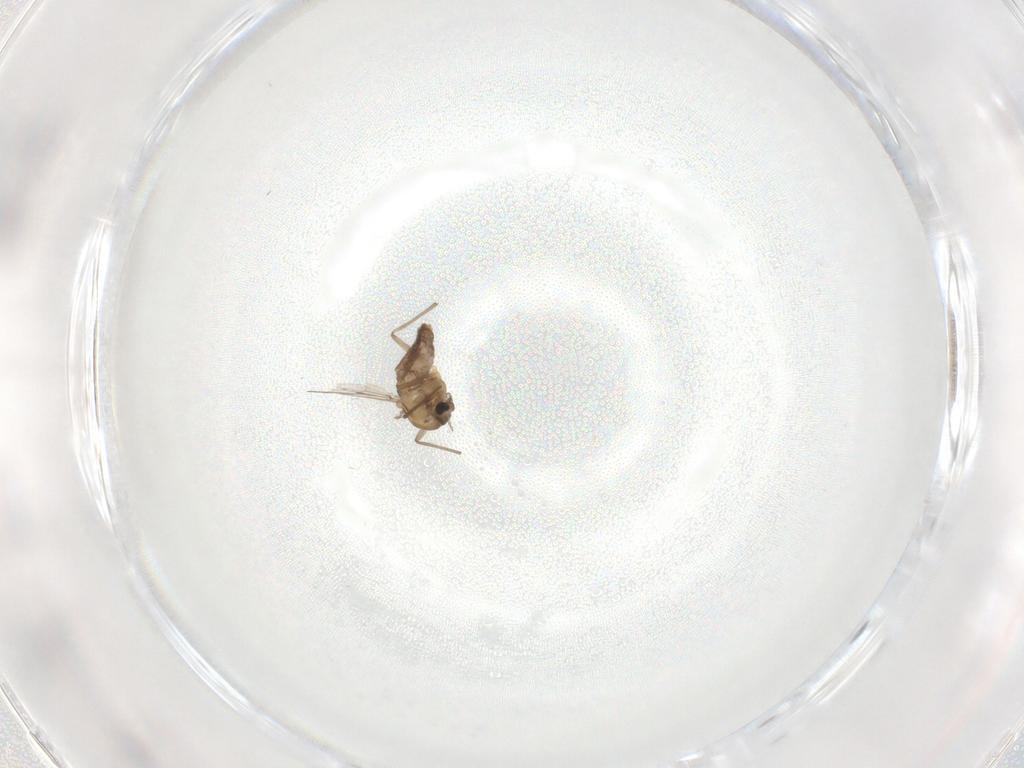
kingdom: Animalia
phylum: Arthropoda
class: Insecta
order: Diptera
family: Chironomidae
